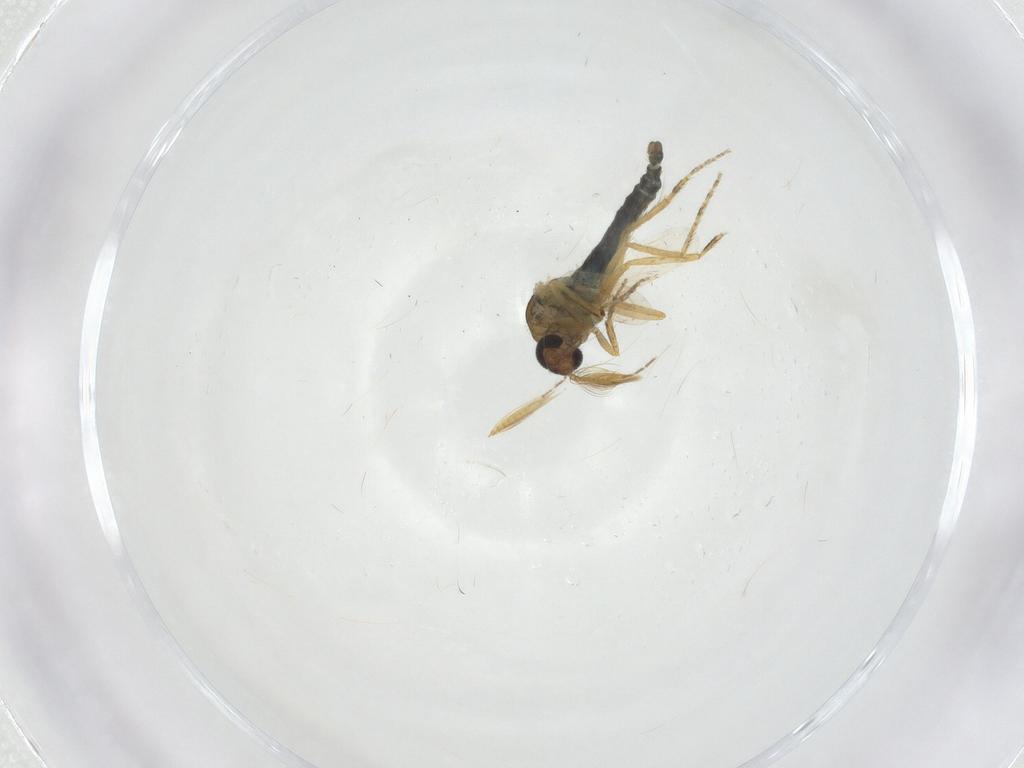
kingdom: Animalia
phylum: Arthropoda
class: Insecta
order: Diptera
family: Ceratopogonidae
